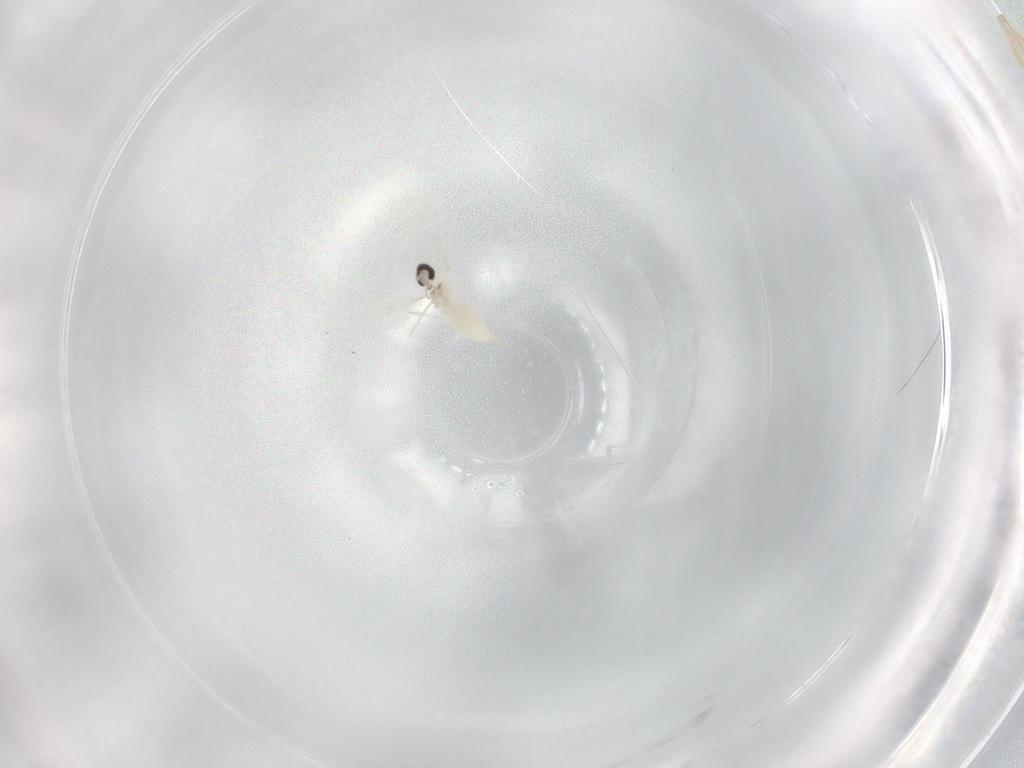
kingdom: Animalia
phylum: Arthropoda
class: Insecta
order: Diptera
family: Cecidomyiidae
